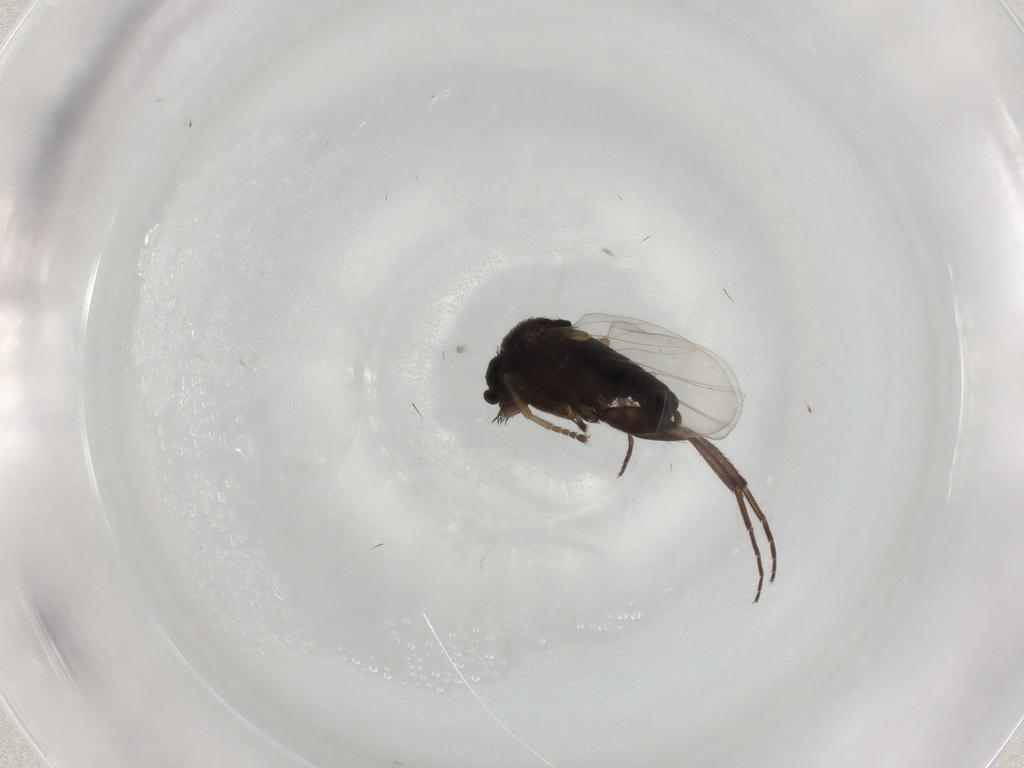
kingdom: Animalia
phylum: Arthropoda
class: Insecta
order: Diptera
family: Phoridae
